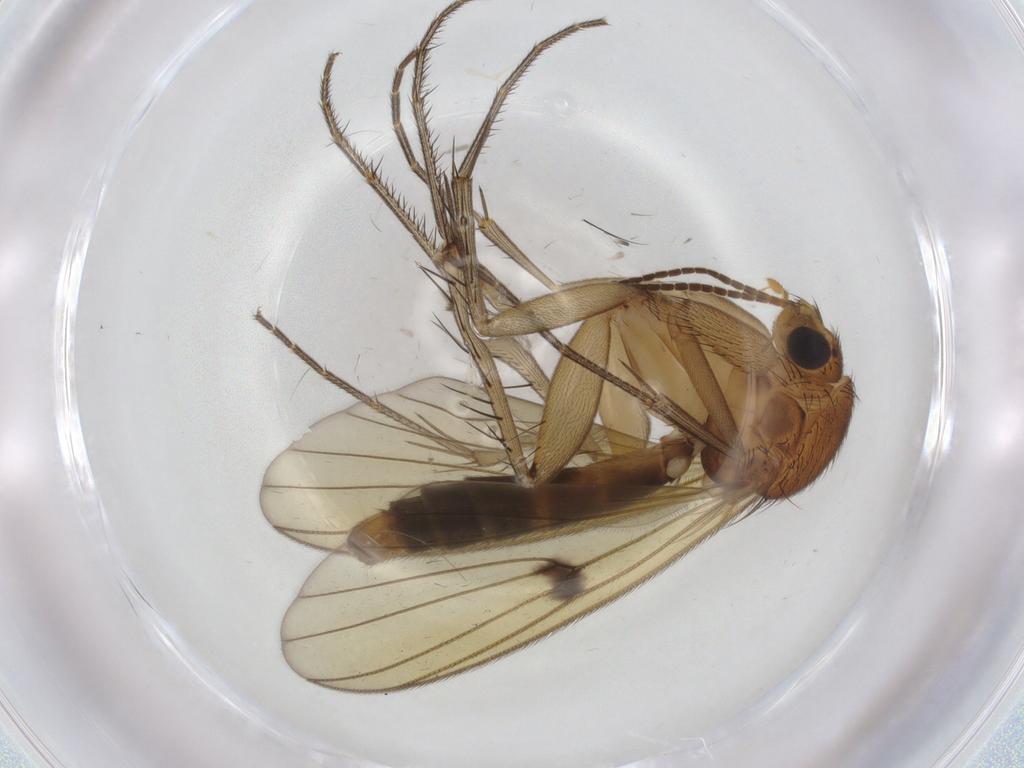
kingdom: Animalia
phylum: Arthropoda
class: Insecta
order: Diptera
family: Mycetophilidae
